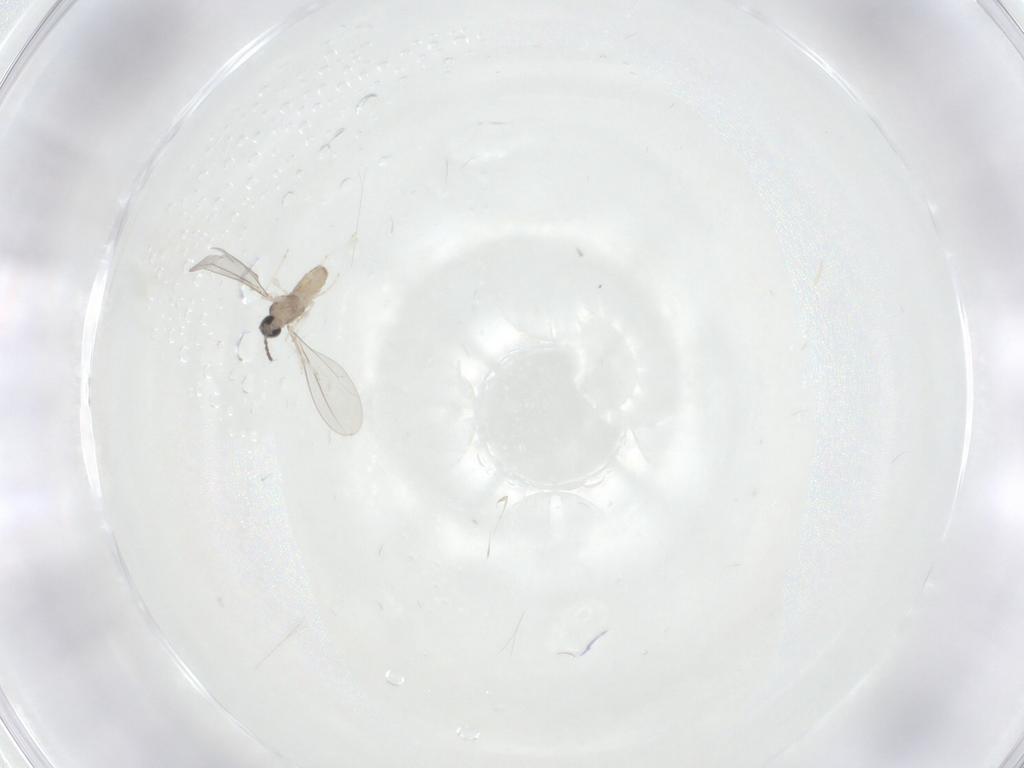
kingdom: Animalia
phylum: Arthropoda
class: Insecta
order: Diptera
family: Cecidomyiidae
